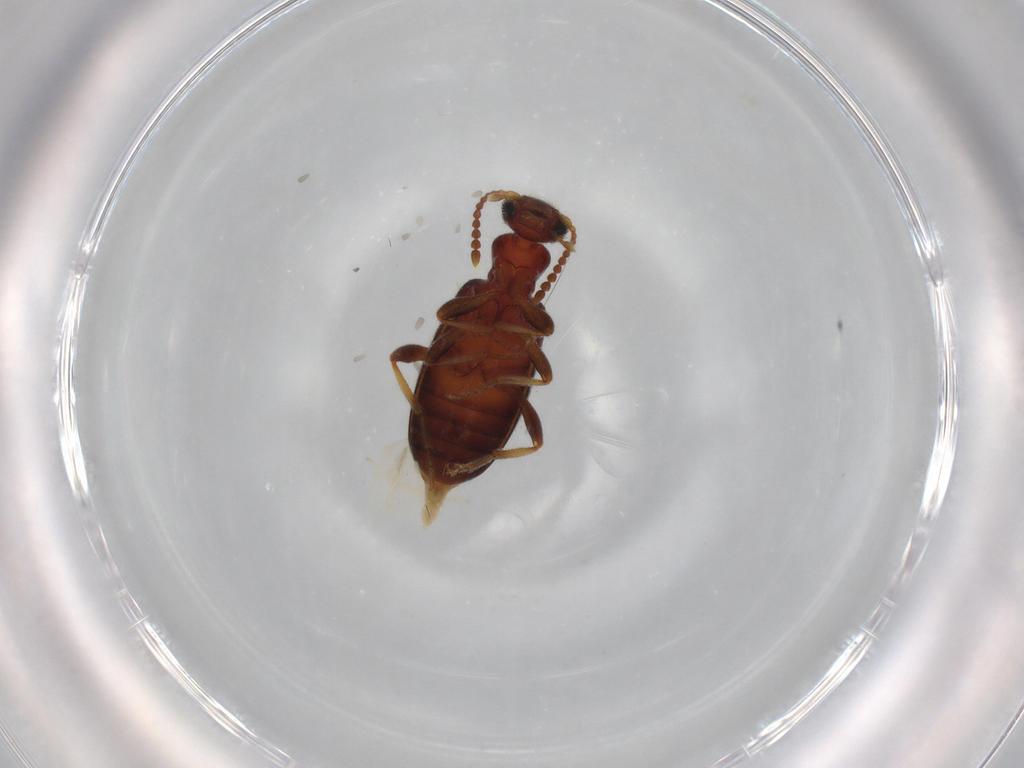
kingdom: Animalia
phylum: Arthropoda
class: Insecta
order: Coleoptera
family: Anthicidae
